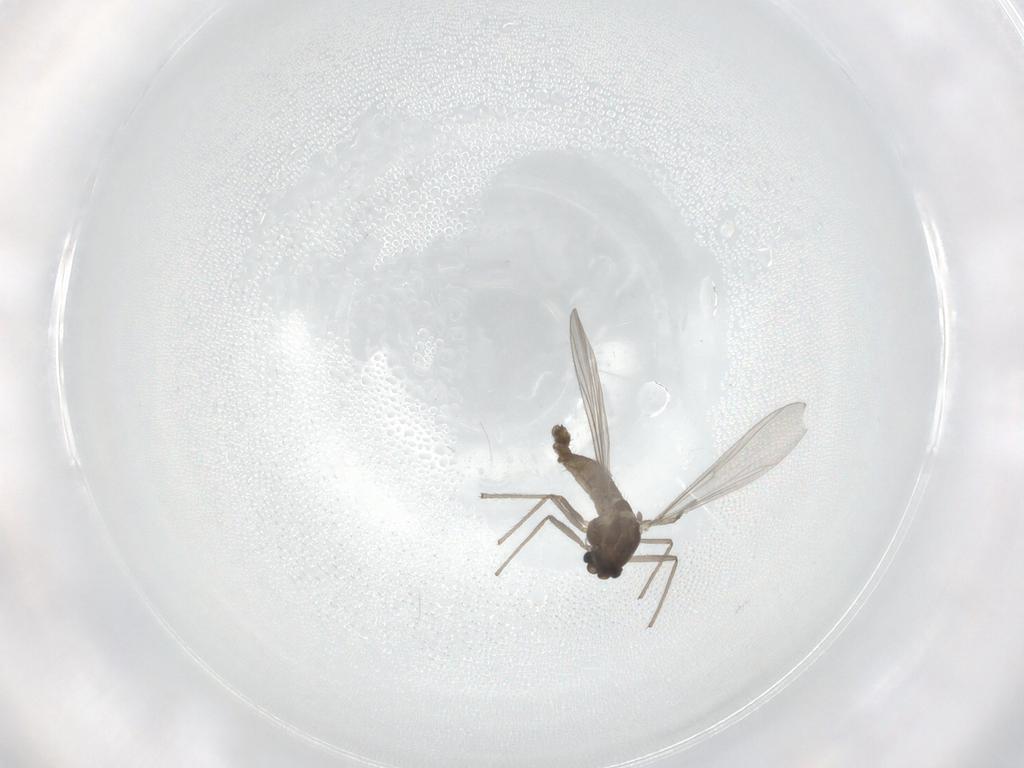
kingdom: Animalia
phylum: Arthropoda
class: Insecta
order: Diptera
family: Chironomidae
